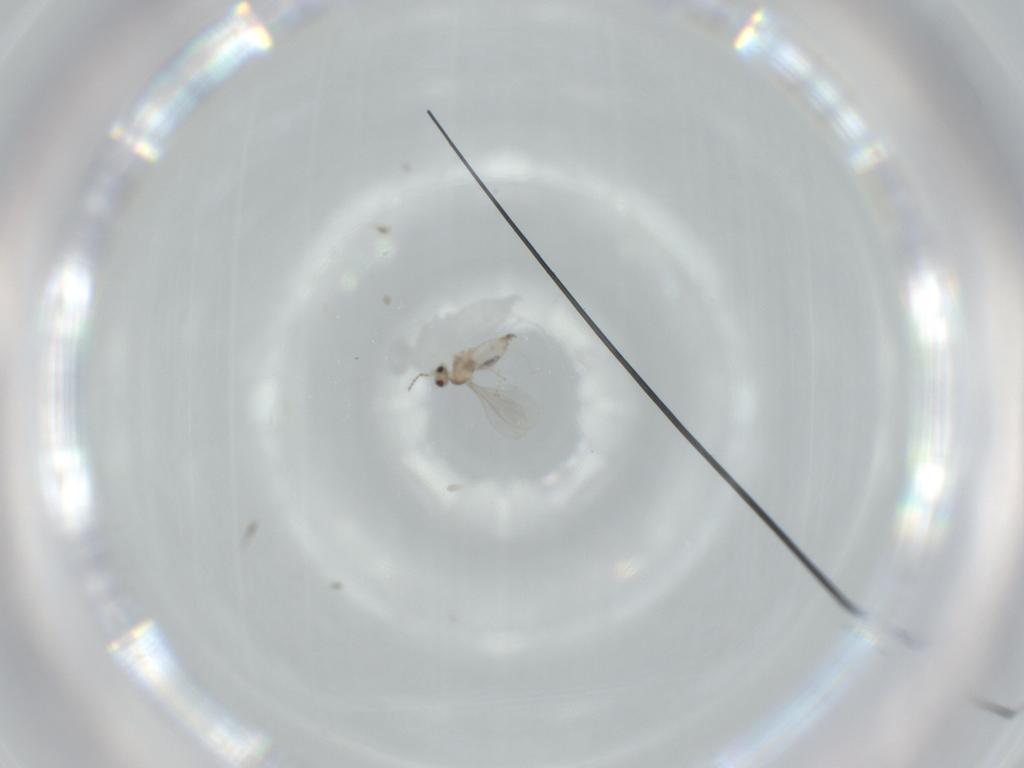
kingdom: Animalia
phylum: Arthropoda
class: Insecta
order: Diptera
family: Cecidomyiidae
